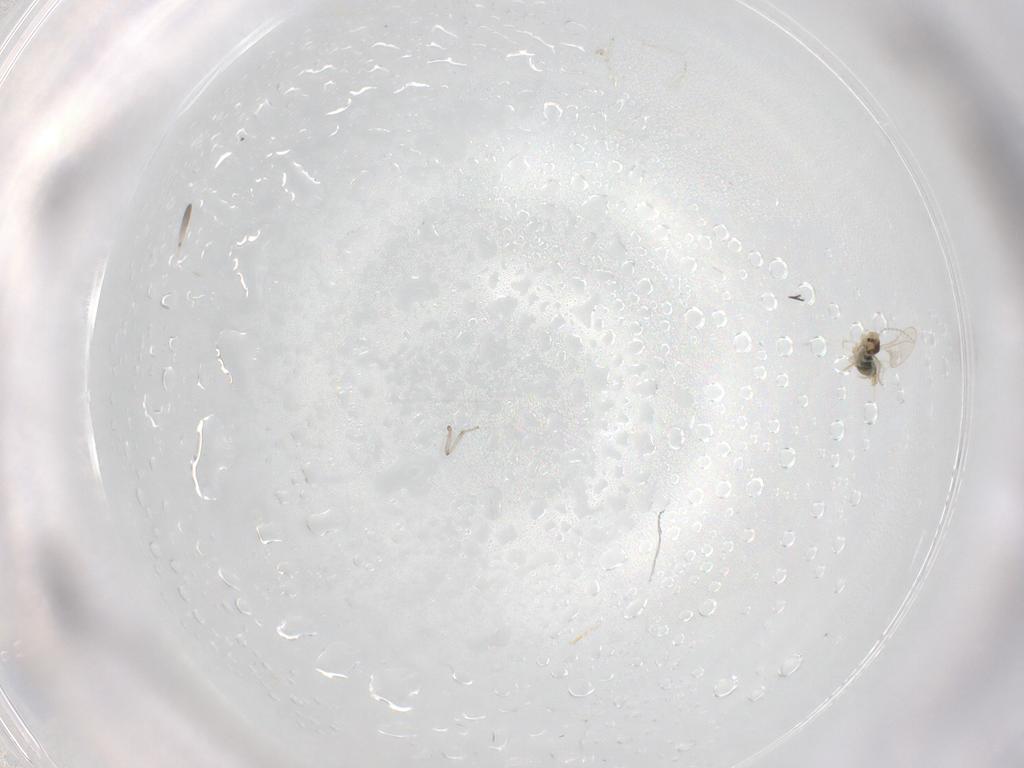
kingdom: Animalia
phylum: Arthropoda
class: Insecta
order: Diptera
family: Cecidomyiidae
